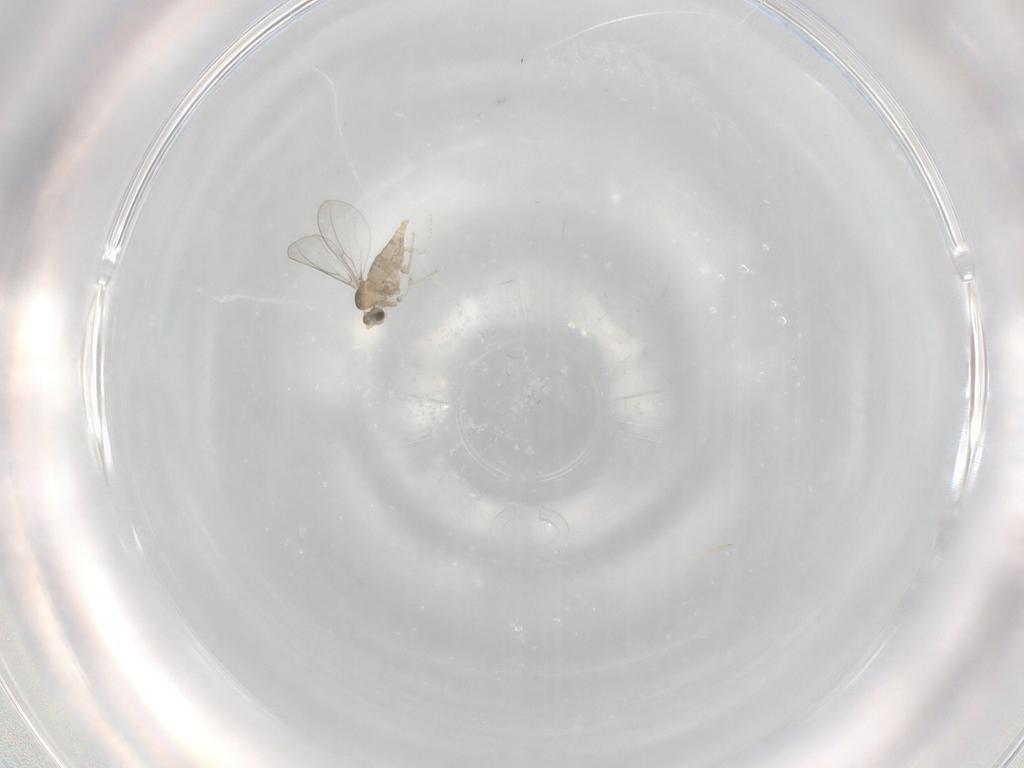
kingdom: Animalia
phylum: Arthropoda
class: Insecta
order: Diptera
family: Cecidomyiidae
